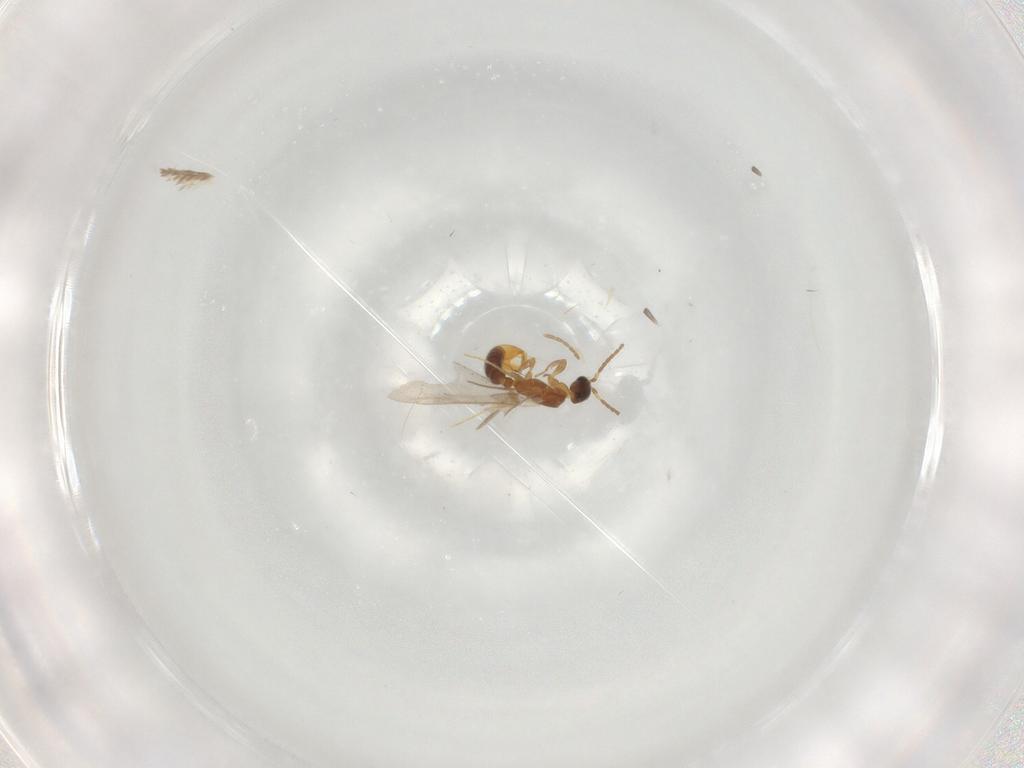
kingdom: Animalia
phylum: Arthropoda
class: Insecta
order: Hymenoptera
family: Formicidae
